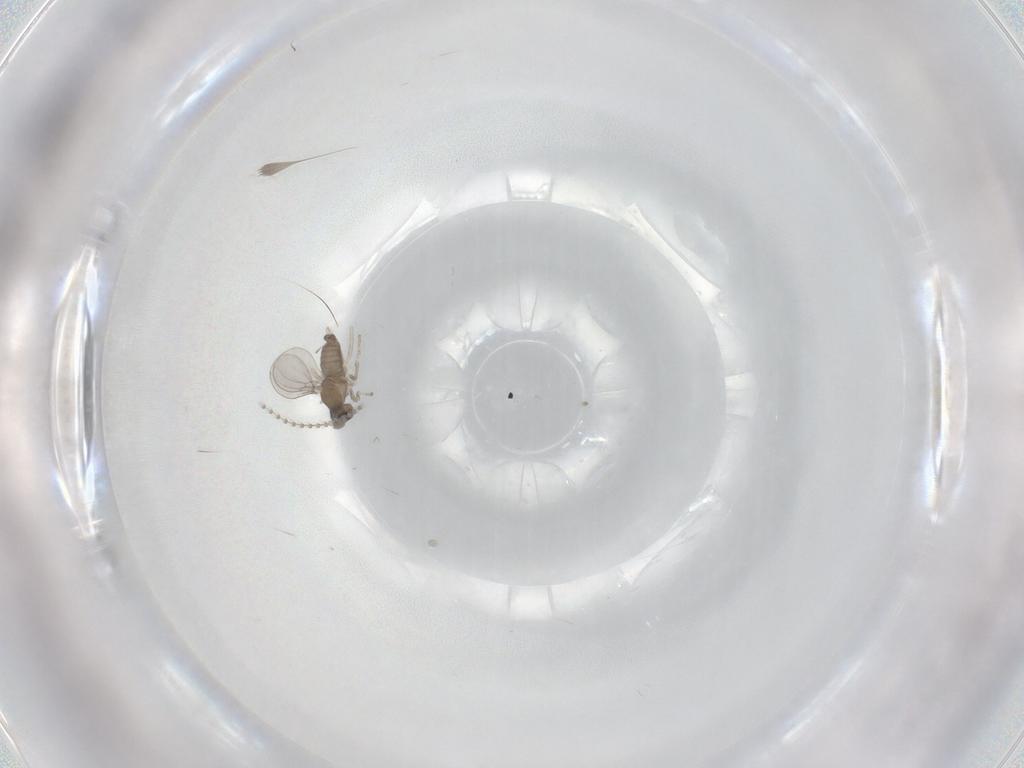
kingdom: Animalia
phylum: Arthropoda
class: Insecta
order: Diptera
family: Cecidomyiidae
